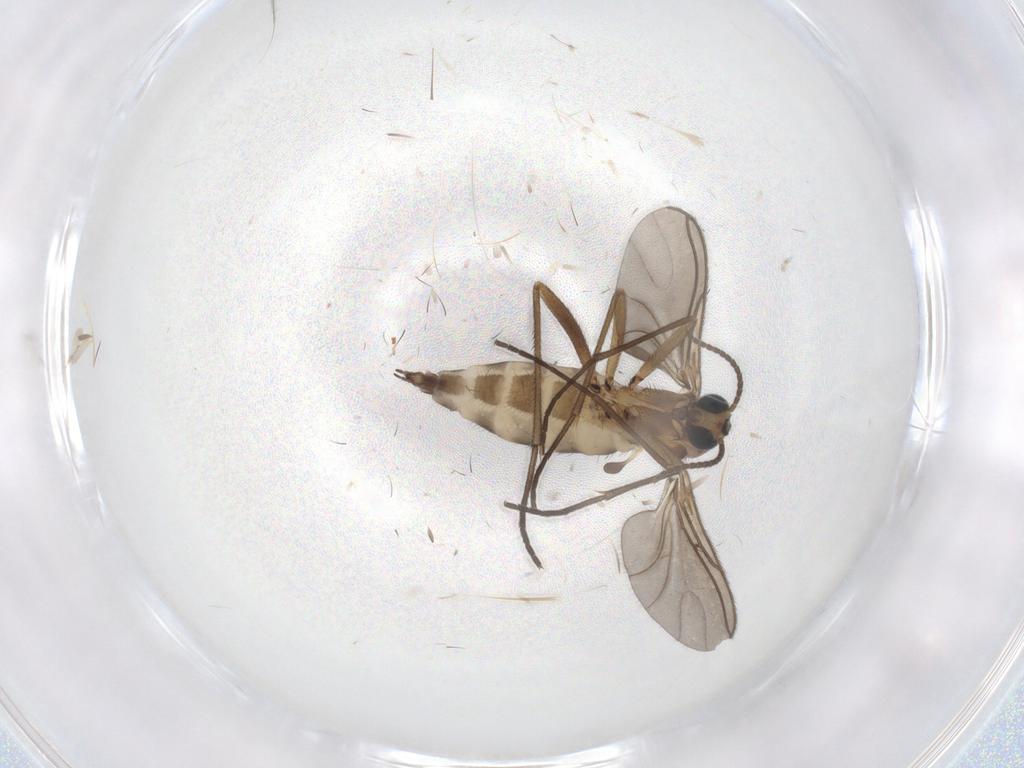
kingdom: Animalia
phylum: Arthropoda
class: Insecta
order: Diptera
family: Sciaridae
